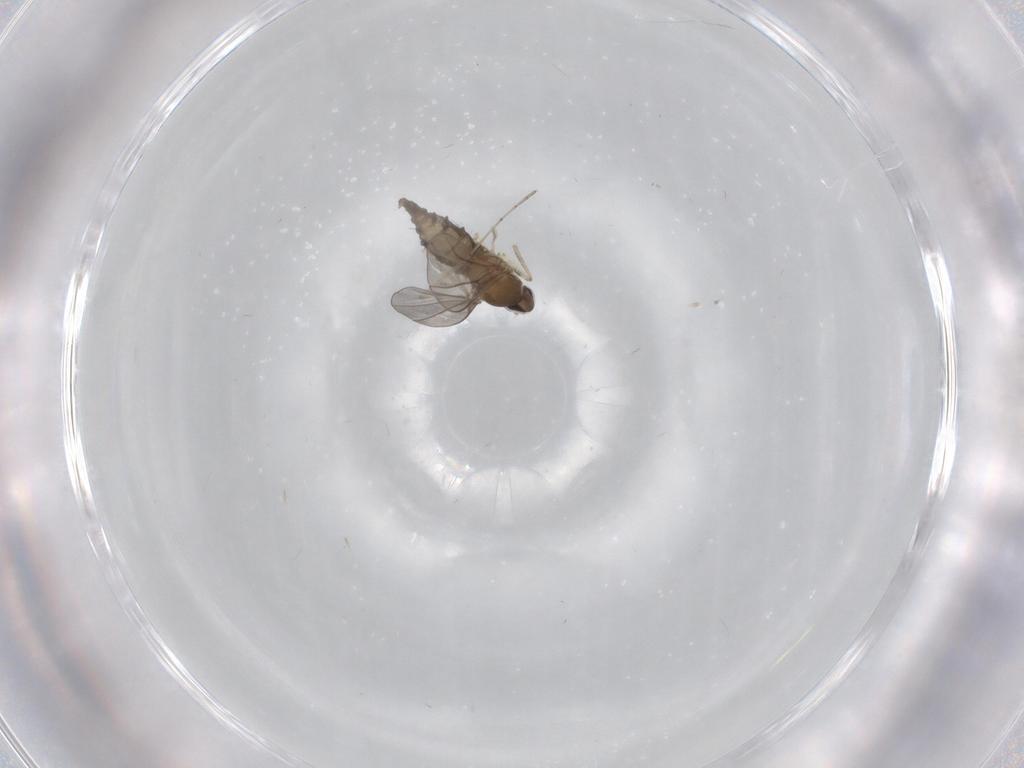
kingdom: Animalia
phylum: Arthropoda
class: Insecta
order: Diptera
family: Cecidomyiidae
